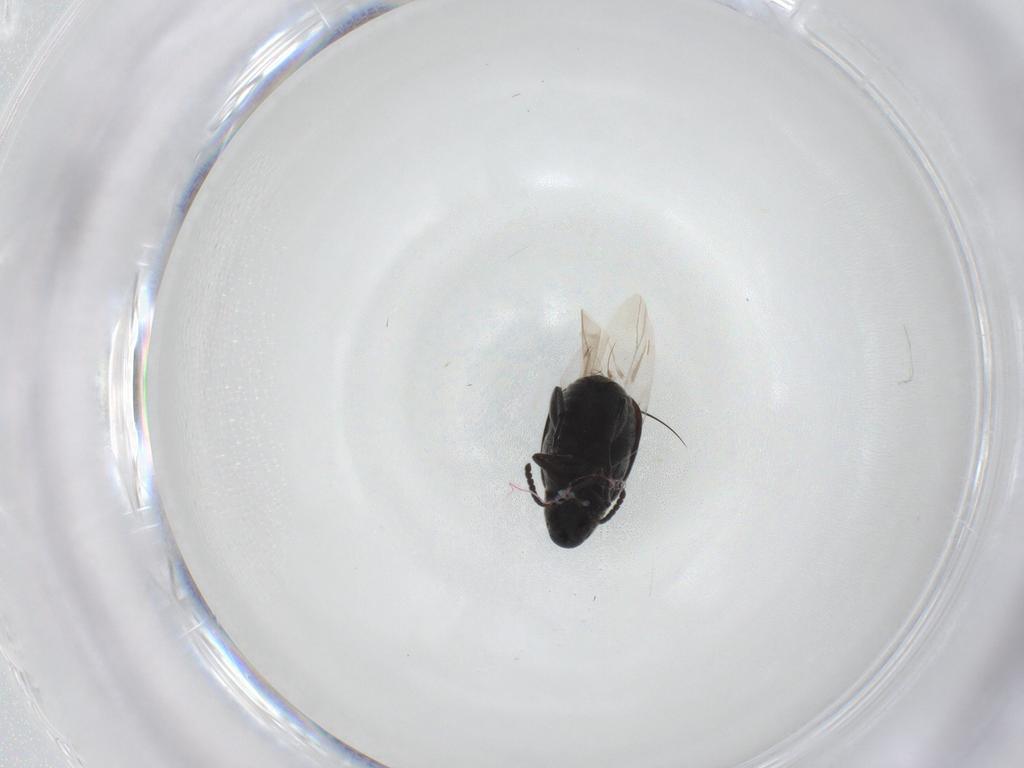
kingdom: Animalia
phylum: Arthropoda
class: Insecta
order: Coleoptera
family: Chrysomelidae
